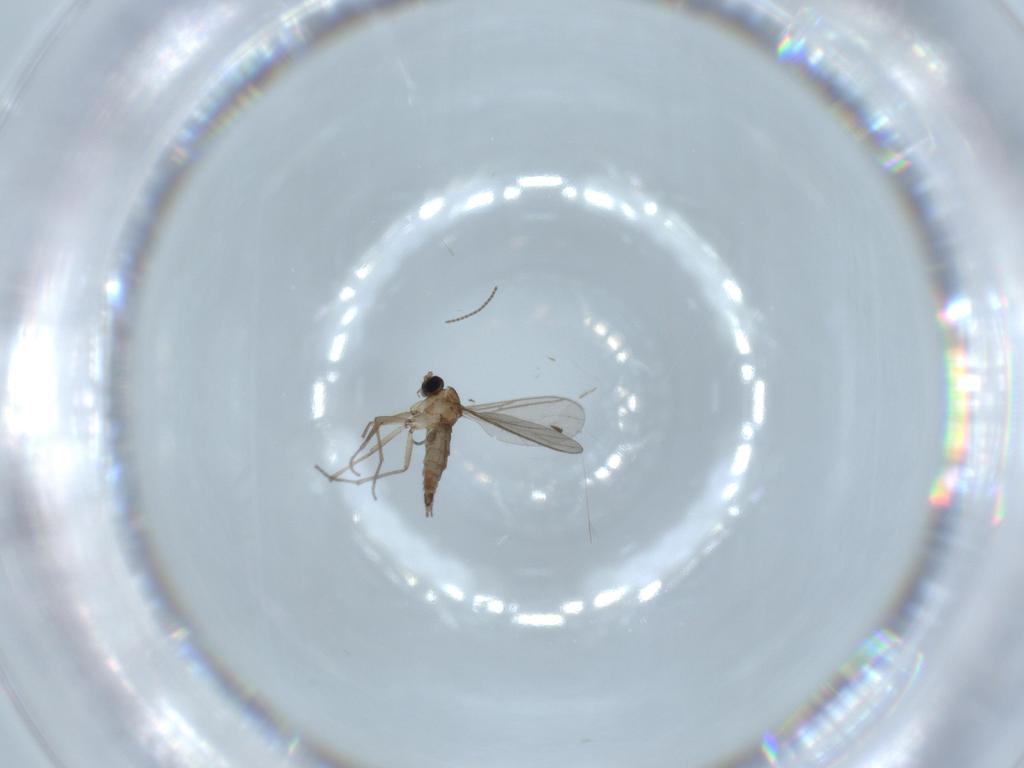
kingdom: Animalia
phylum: Arthropoda
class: Insecta
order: Diptera
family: Sciaridae
